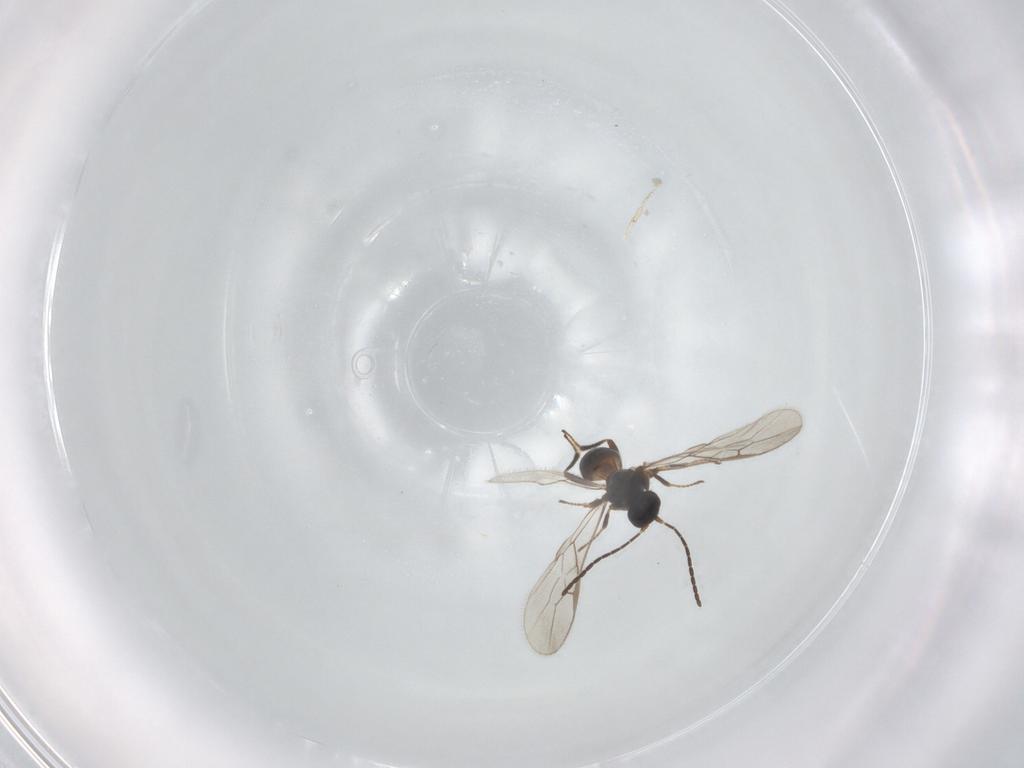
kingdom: Animalia
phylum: Arthropoda
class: Insecta
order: Hymenoptera
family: Braconidae
